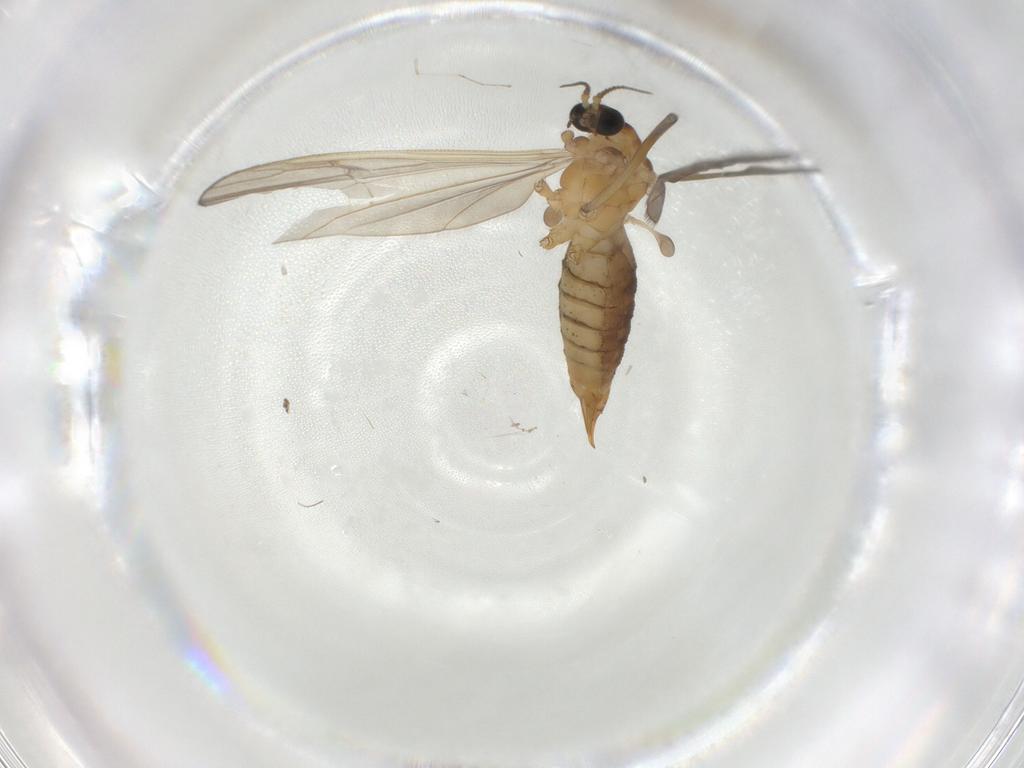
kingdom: Animalia
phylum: Arthropoda
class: Insecta
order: Diptera
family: Limoniidae
